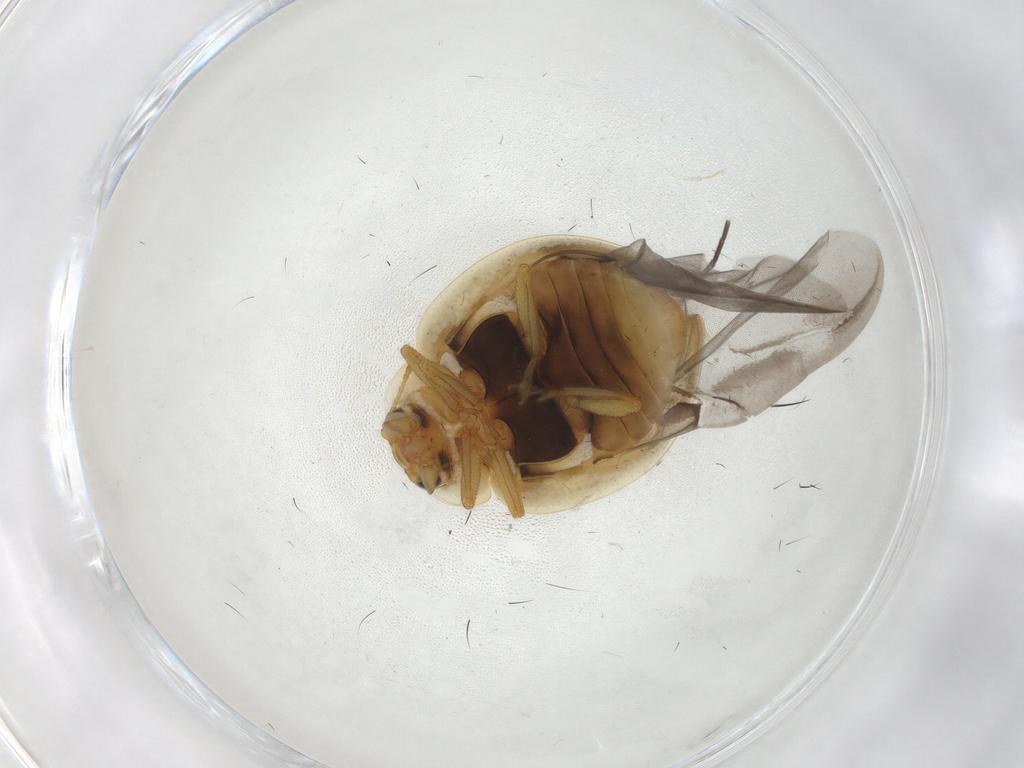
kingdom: Animalia
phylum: Arthropoda
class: Insecta
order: Coleoptera
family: Coccinellidae
